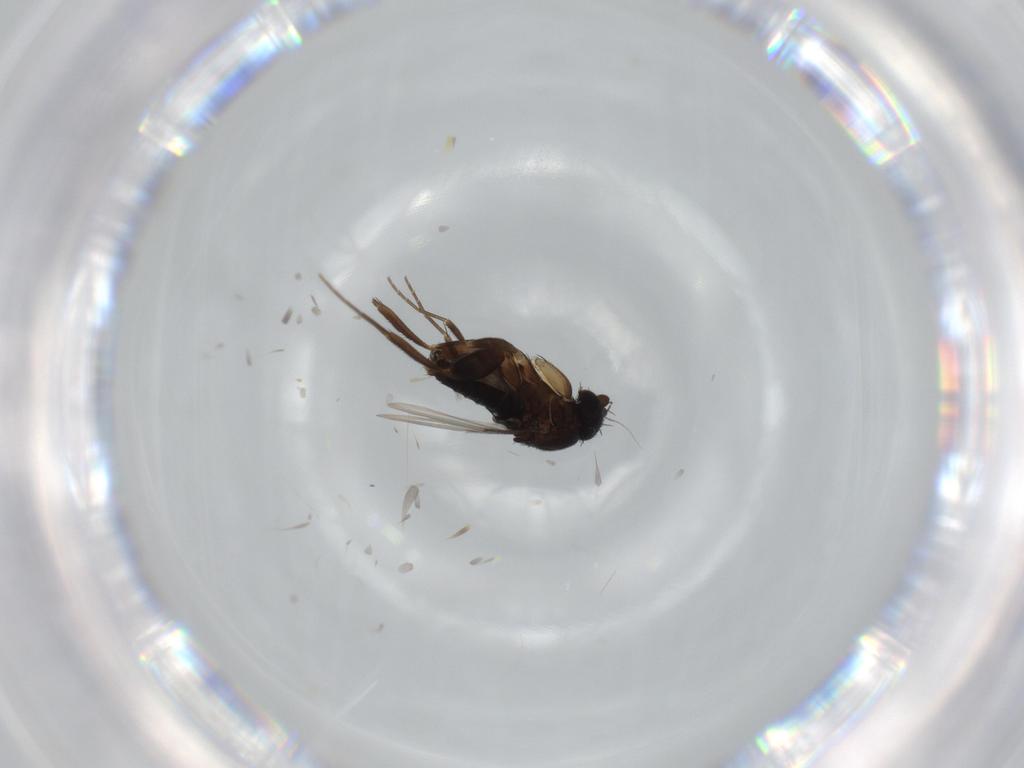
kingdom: Animalia
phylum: Arthropoda
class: Insecta
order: Diptera
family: Phoridae
